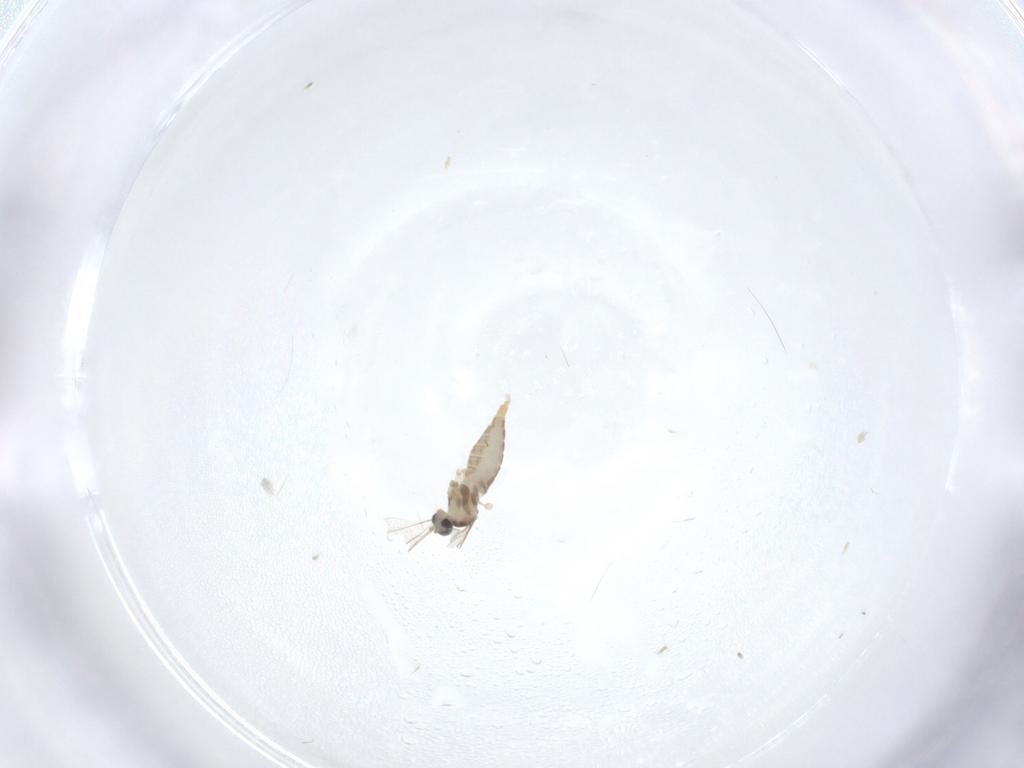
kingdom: Animalia
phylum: Arthropoda
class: Insecta
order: Diptera
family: Cecidomyiidae
